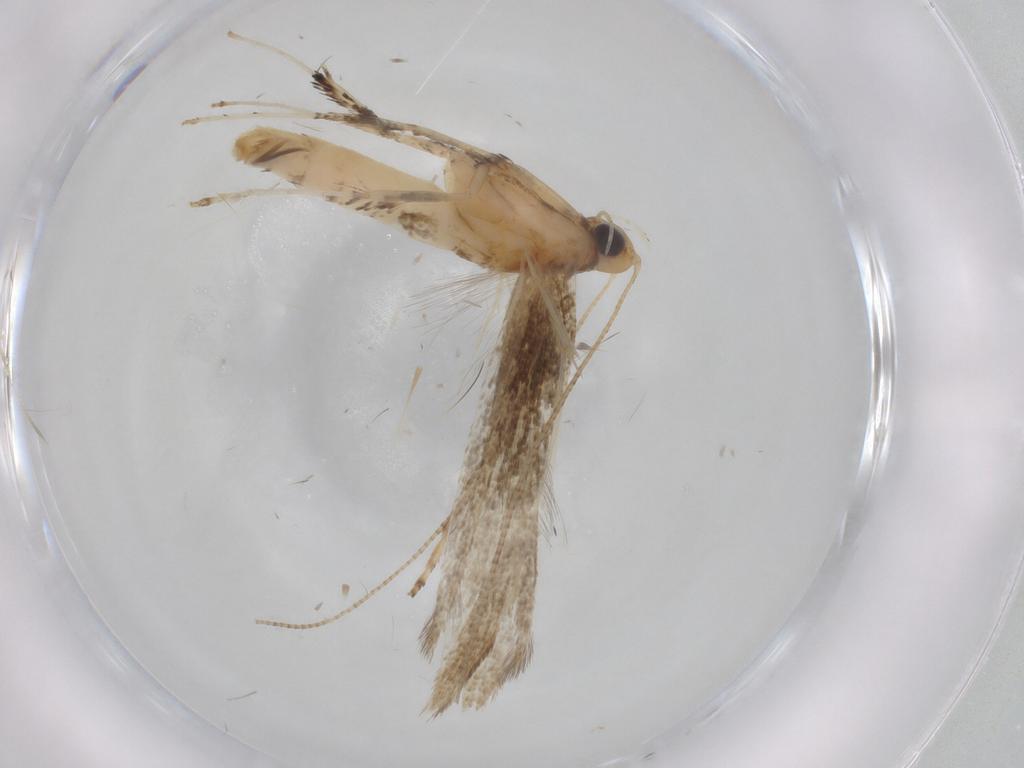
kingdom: Animalia
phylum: Arthropoda
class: Insecta
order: Lepidoptera
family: Gracillariidae
